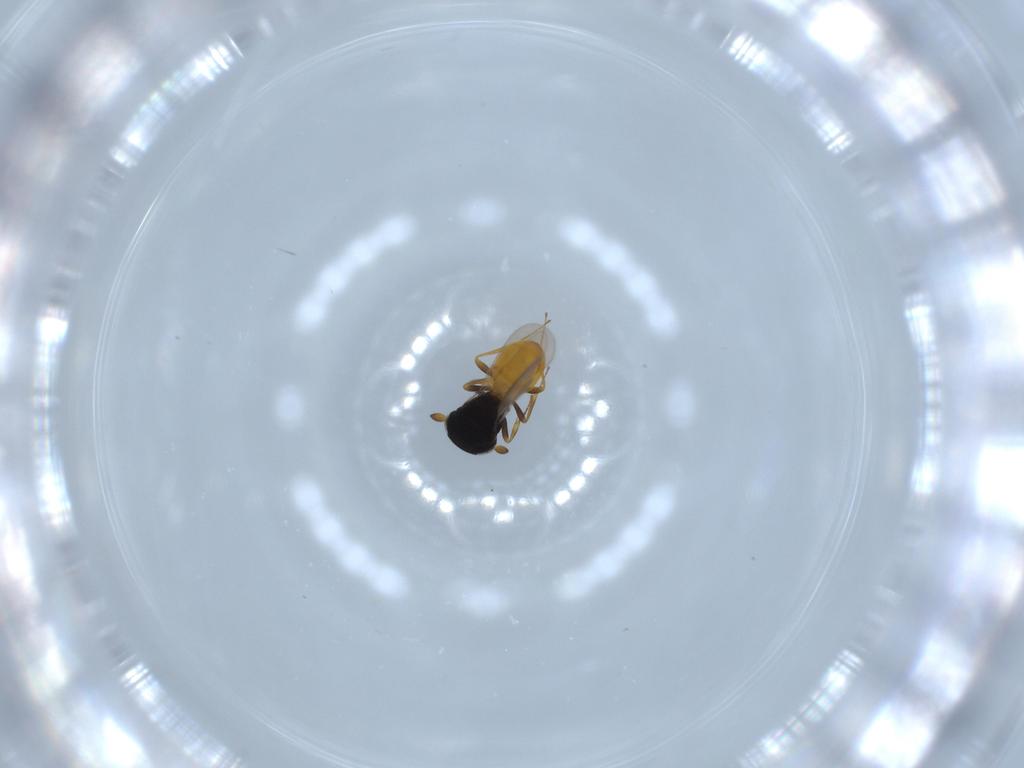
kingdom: Animalia
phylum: Arthropoda
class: Insecta
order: Hymenoptera
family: Scelionidae
